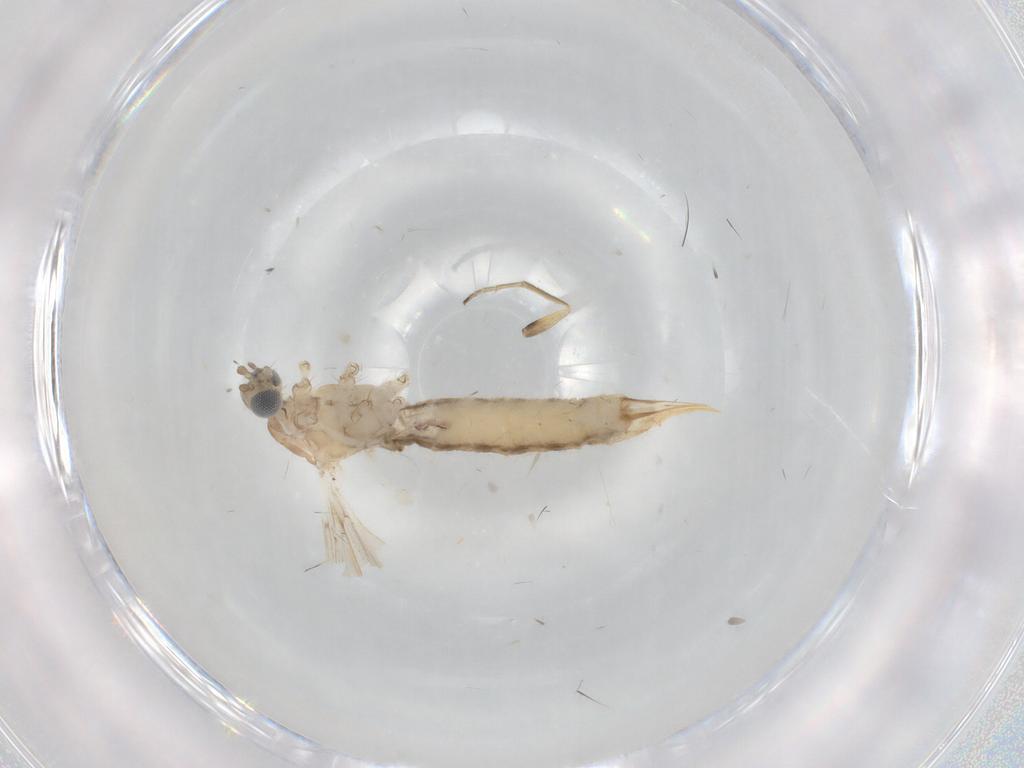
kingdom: Animalia
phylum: Arthropoda
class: Insecta
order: Diptera
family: Limoniidae
